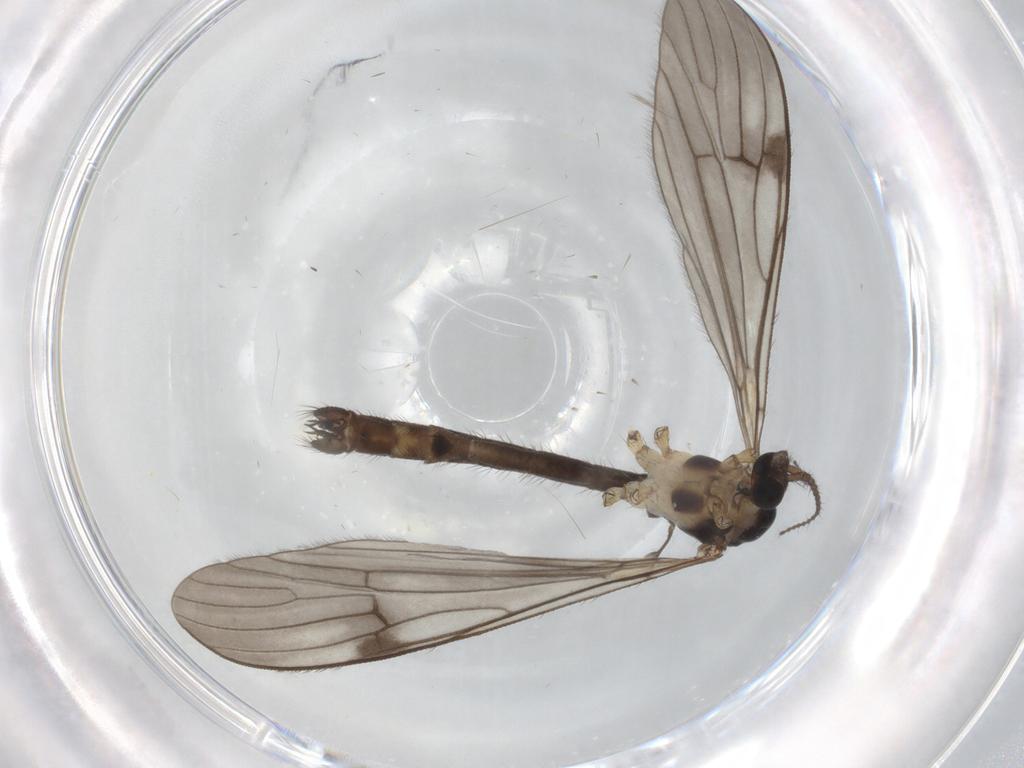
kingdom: Animalia
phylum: Arthropoda
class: Insecta
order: Diptera
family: Limoniidae
